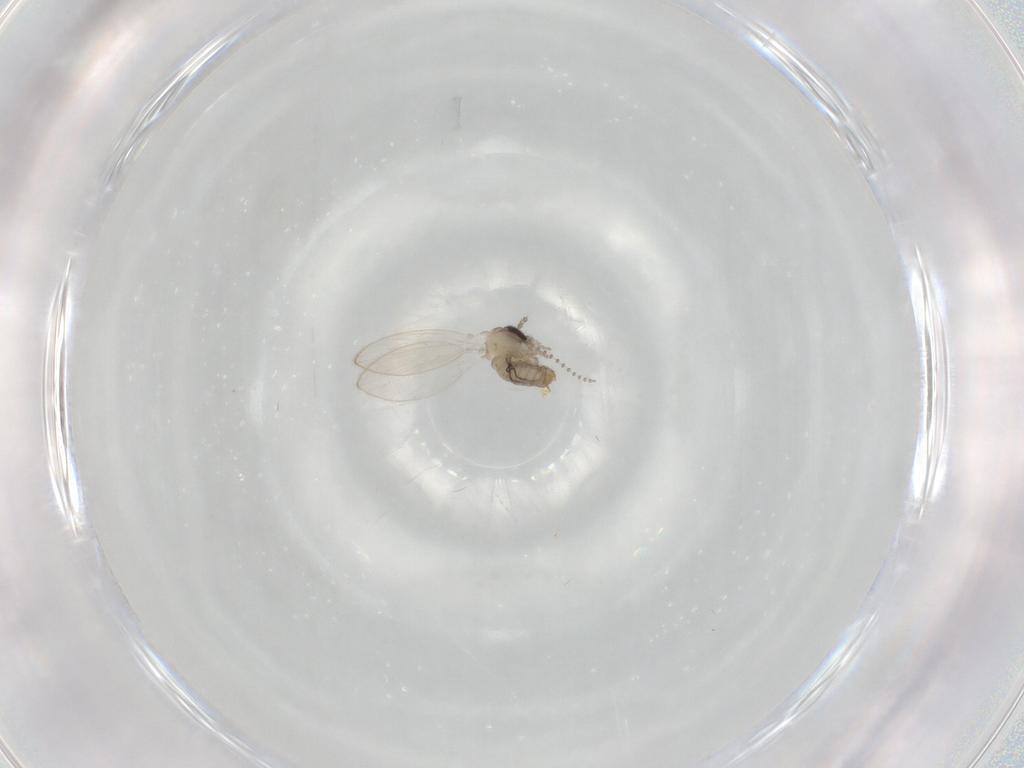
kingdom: Animalia
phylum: Arthropoda
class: Insecta
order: Diptera
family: Psychodidae
